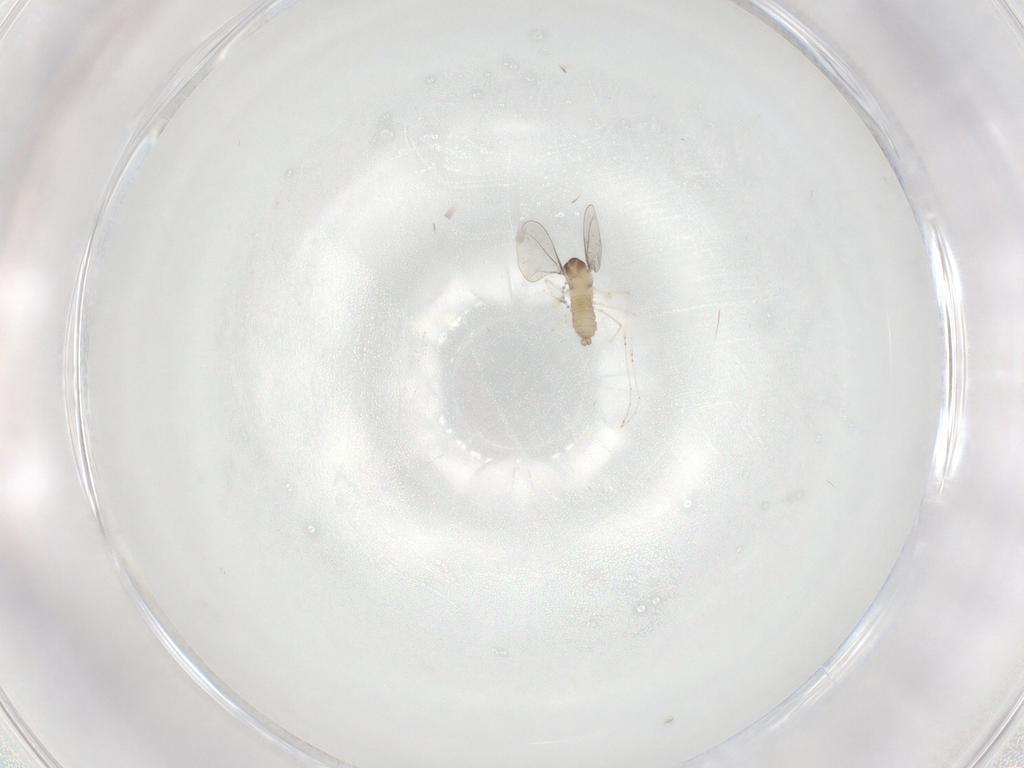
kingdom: Animalia
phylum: Arthropoda
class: Insecta
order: Diptera
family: Cecidomyiidae
